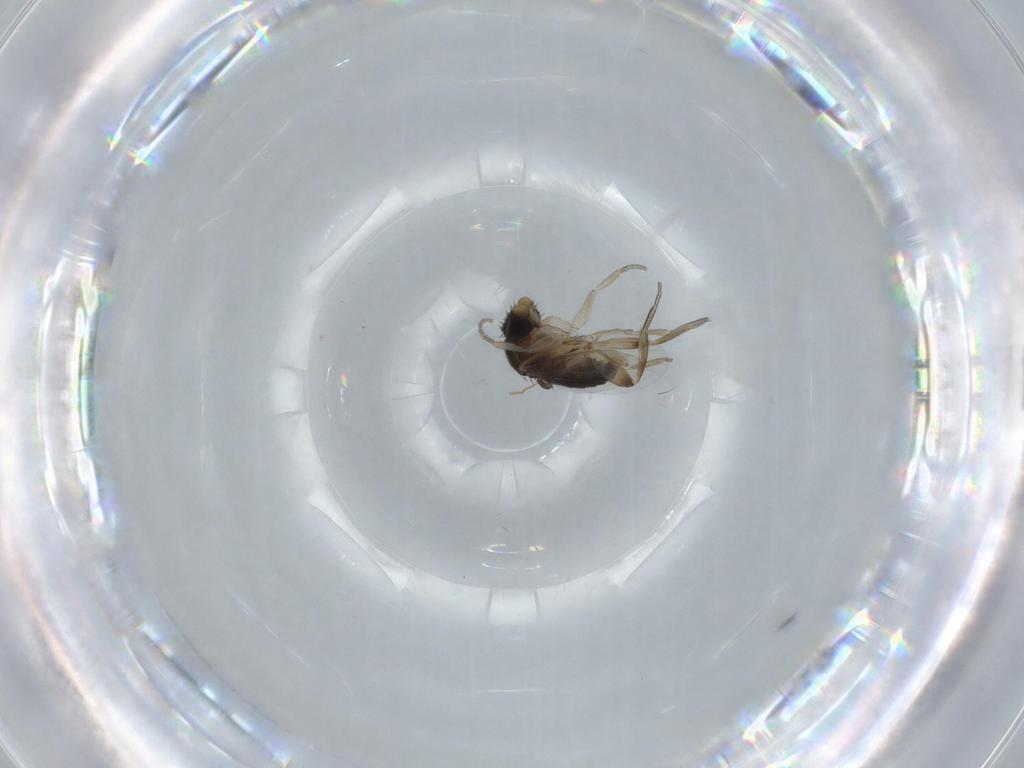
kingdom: Animalia
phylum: Arthropoda
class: Insecta
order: Diptera
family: Phoridae
